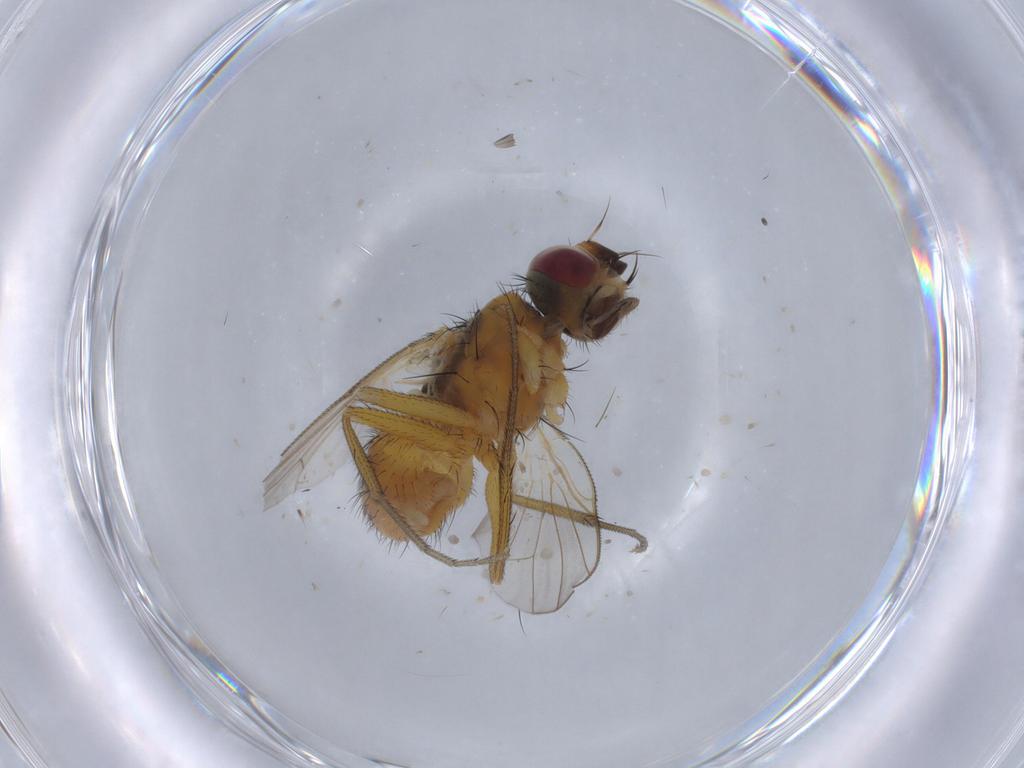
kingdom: Animalia
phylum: Arthropoda
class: Insecta
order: Diptera
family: Muscidae
